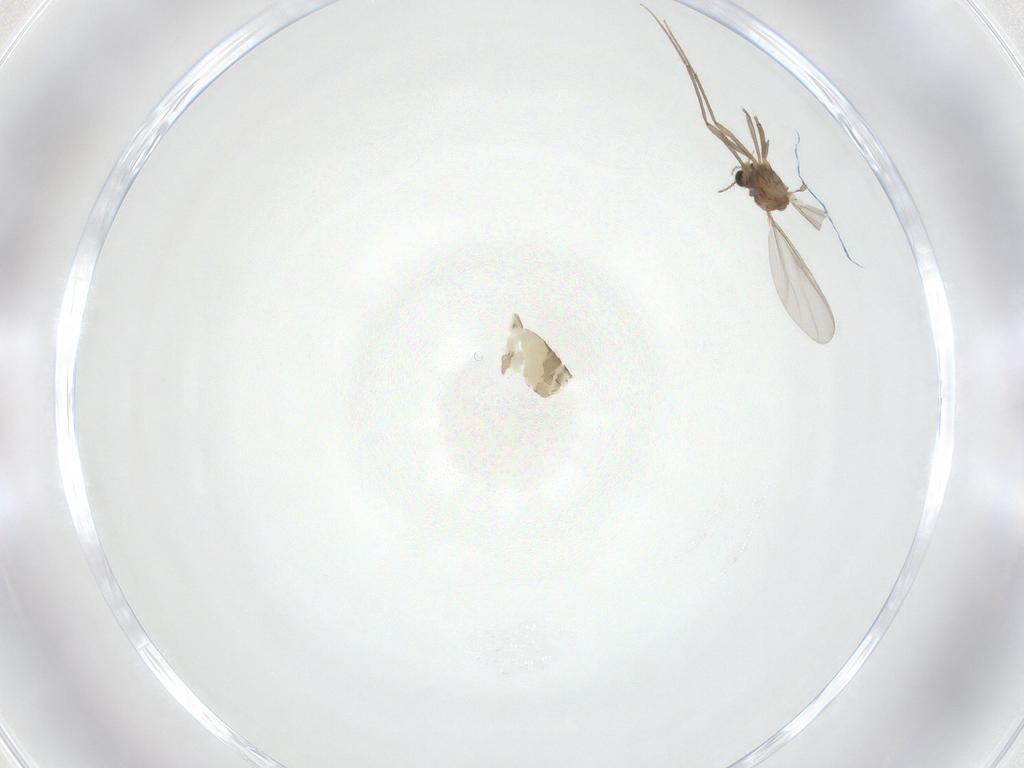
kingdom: Animalia
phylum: Arthropoda
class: Insecta
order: Diptera
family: Chironomidae
